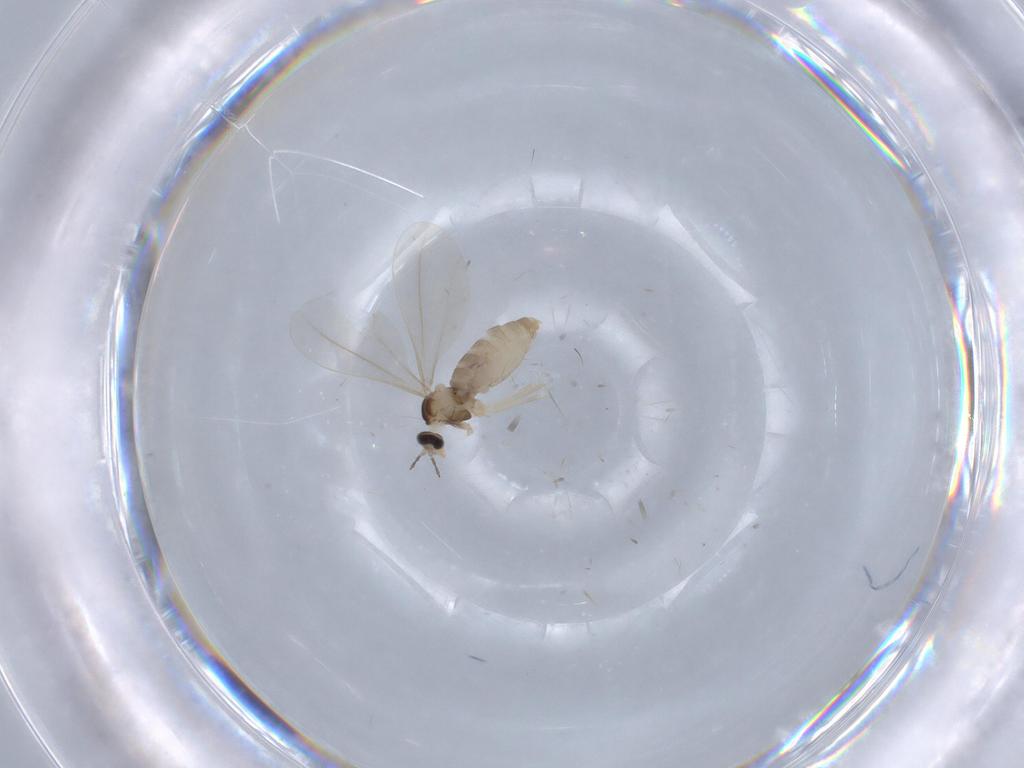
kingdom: Animalia
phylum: Arthropoda
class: Insecta
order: Diptera
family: Cecidomyiidae
